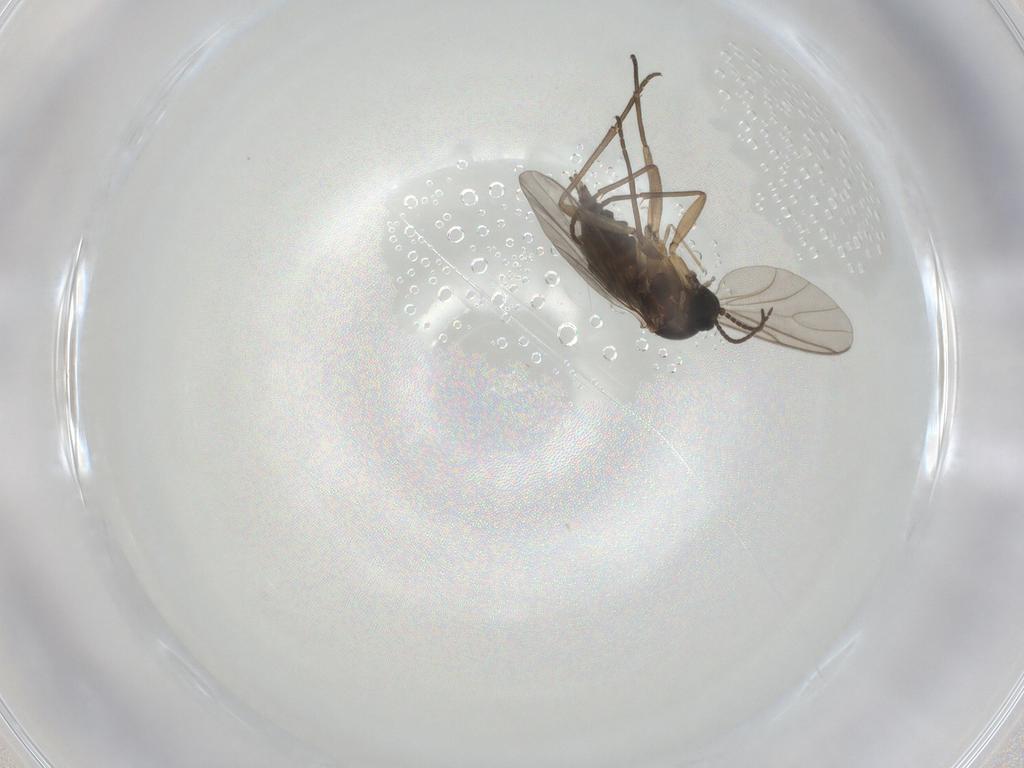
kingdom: Animalia
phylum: Arthropoda
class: Insecta
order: Diptera
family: Sciaridae
